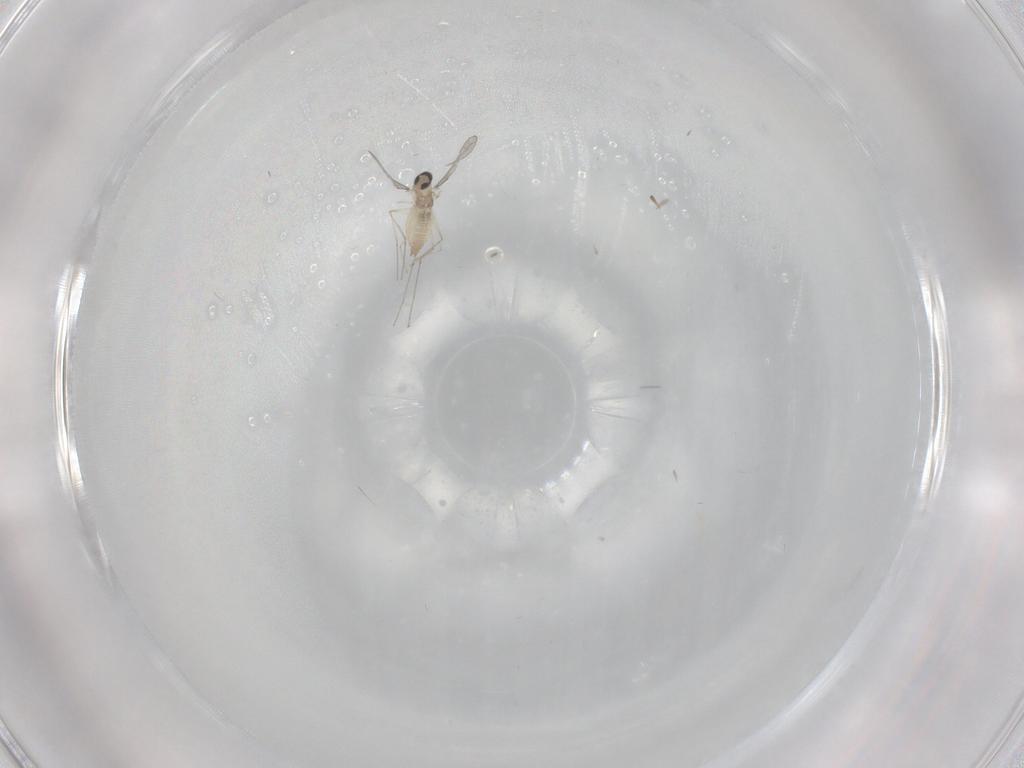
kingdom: Animalia
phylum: Arthropoda
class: Insecta
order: Diptera
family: Cecidomyiidae
